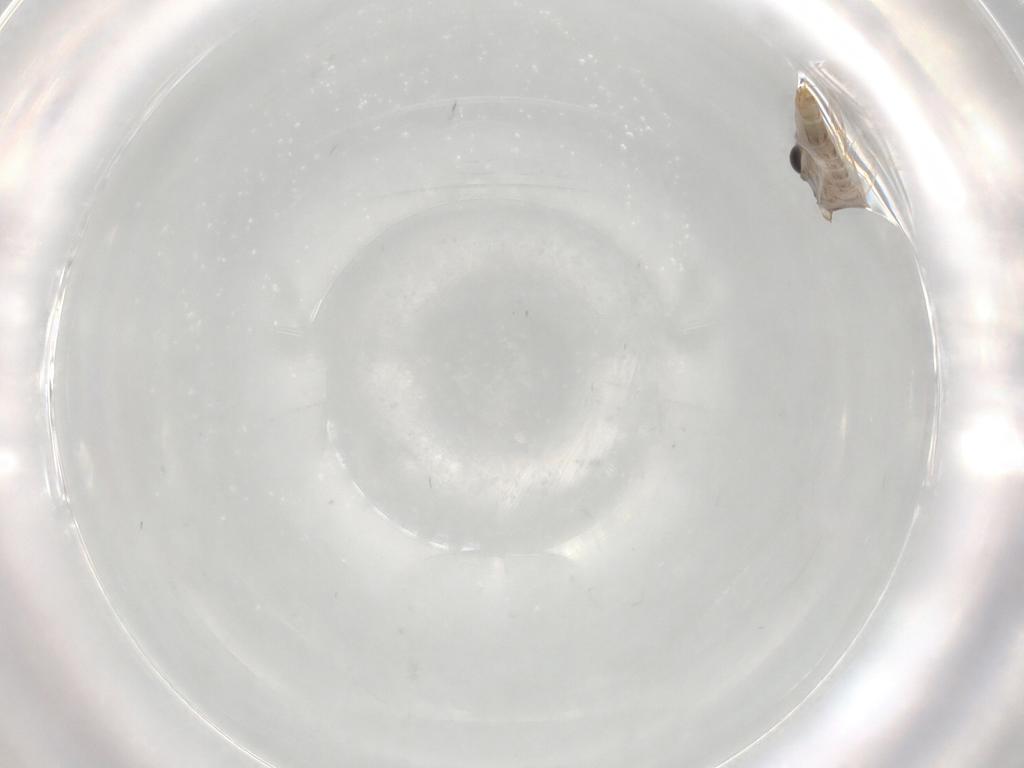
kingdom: Animalia
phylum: Arthropoda
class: Insecta
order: Trichoptera
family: Hydroptilidae
